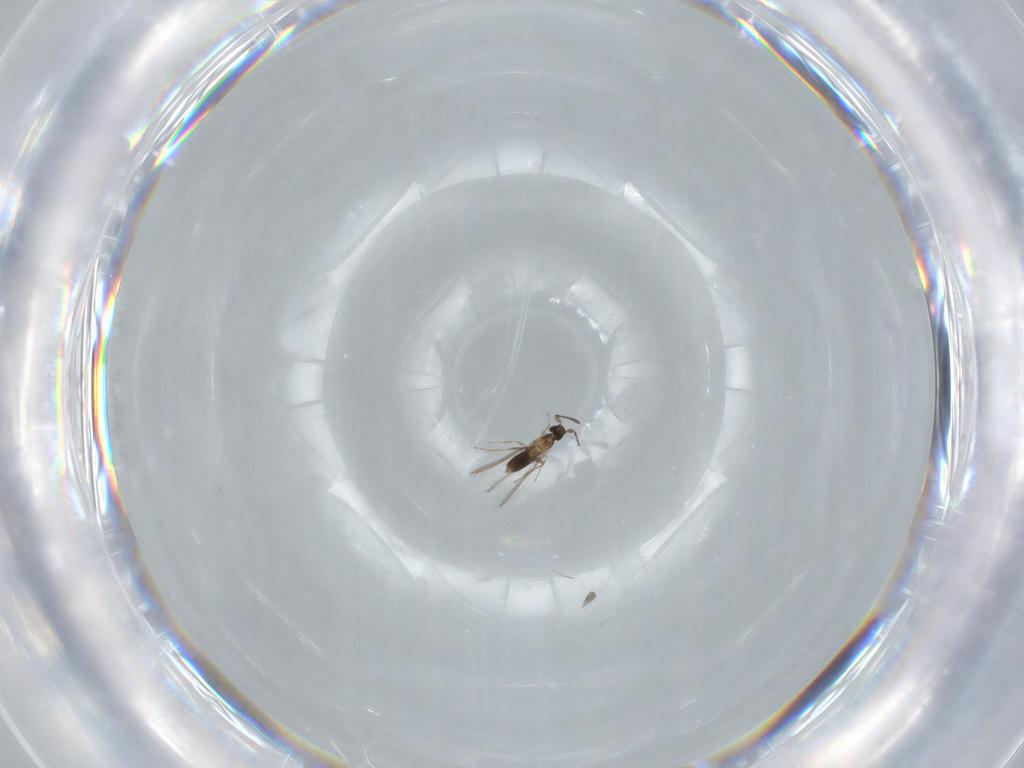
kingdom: Animalia
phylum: Arthropoda
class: Insecta
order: Hymenoptera
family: Mymaridae
